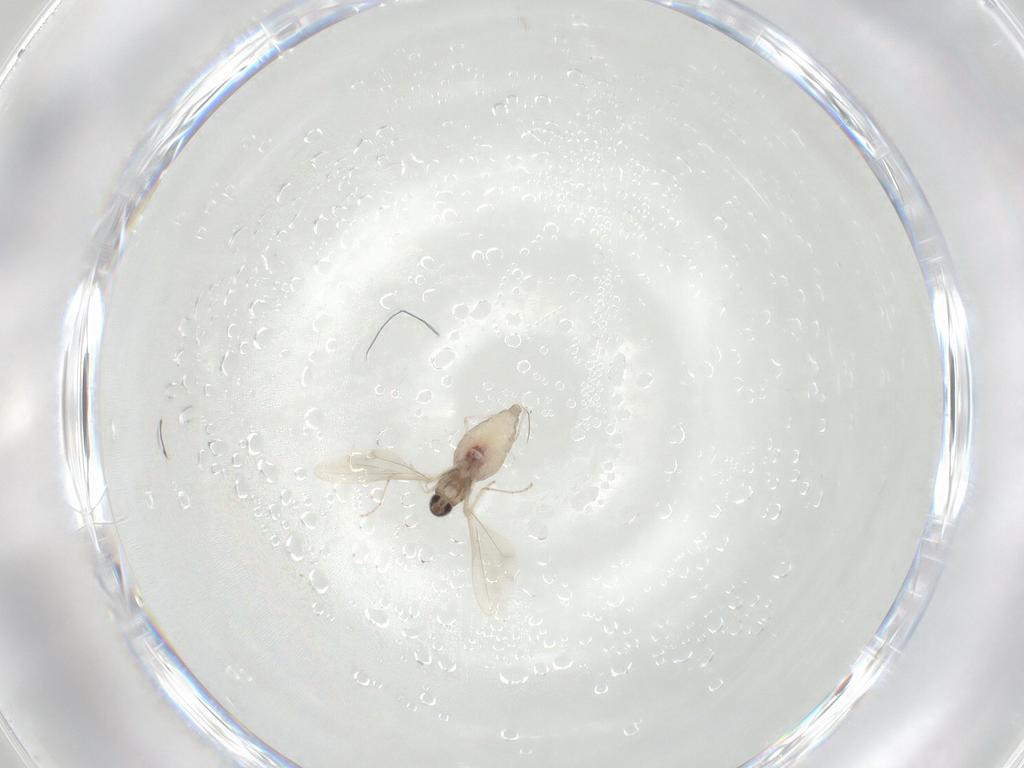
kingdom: Animalia
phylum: Arthropoda
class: Insecta
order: Diptera
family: Cecidomyiidae
